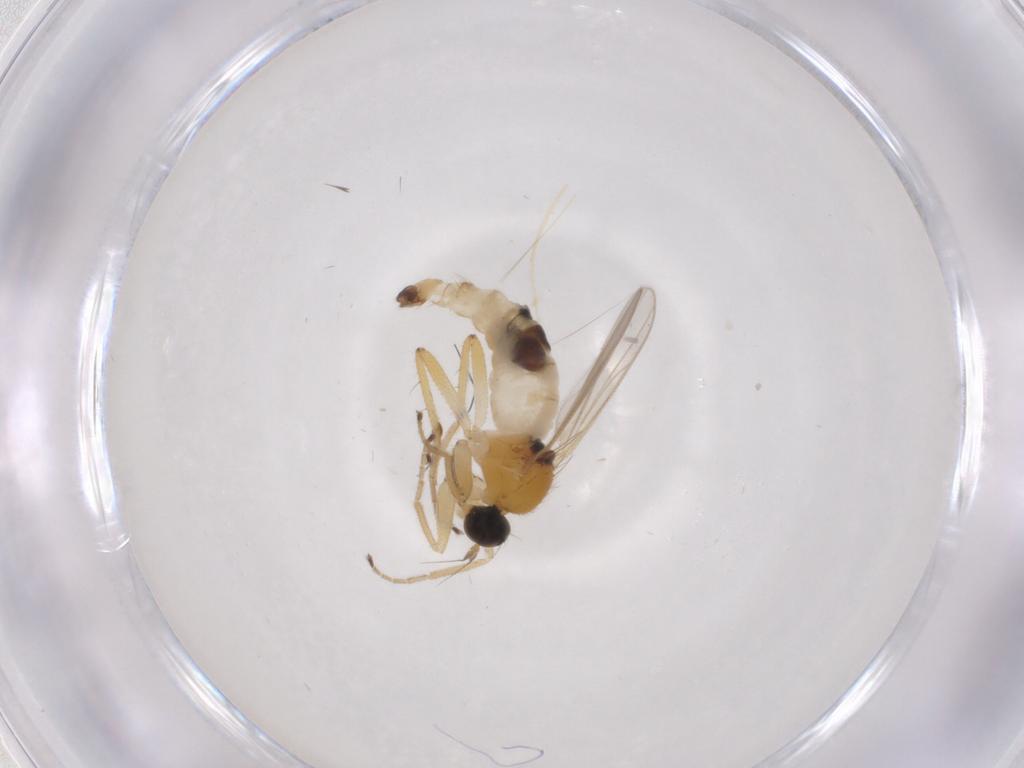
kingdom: Animalia
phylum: Arthropoda
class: Insecta
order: Diptera
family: Hybotidae
